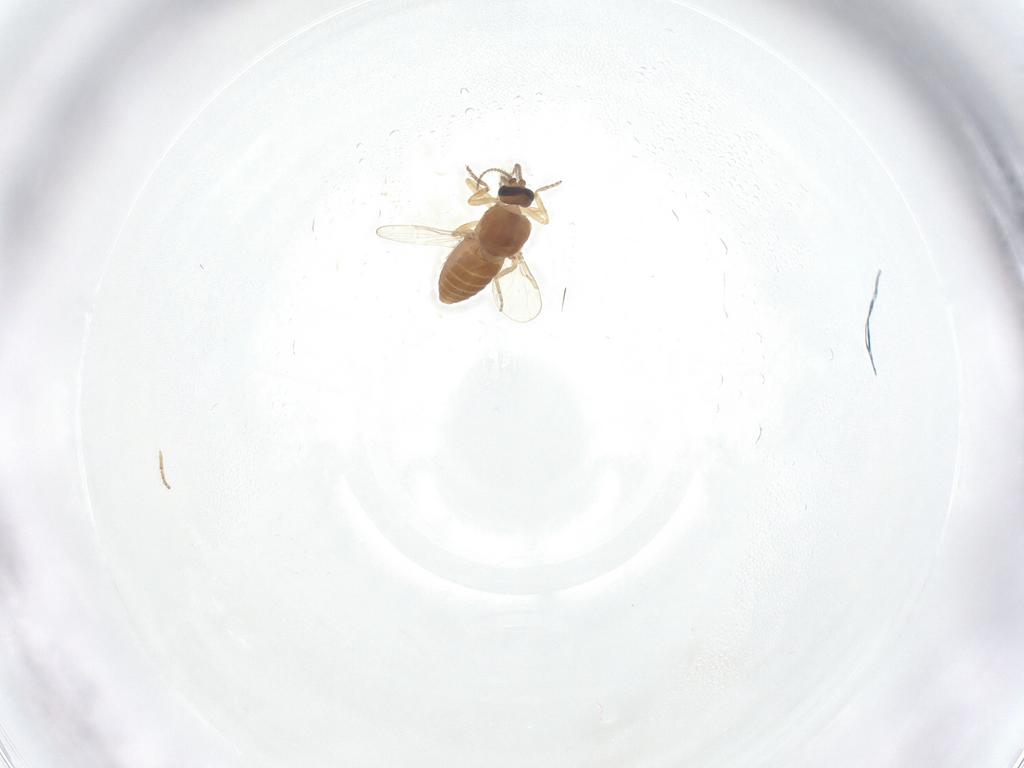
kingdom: Animalia
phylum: Arthropoda
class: Insecta
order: Diptera
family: Ceratopogonidae
